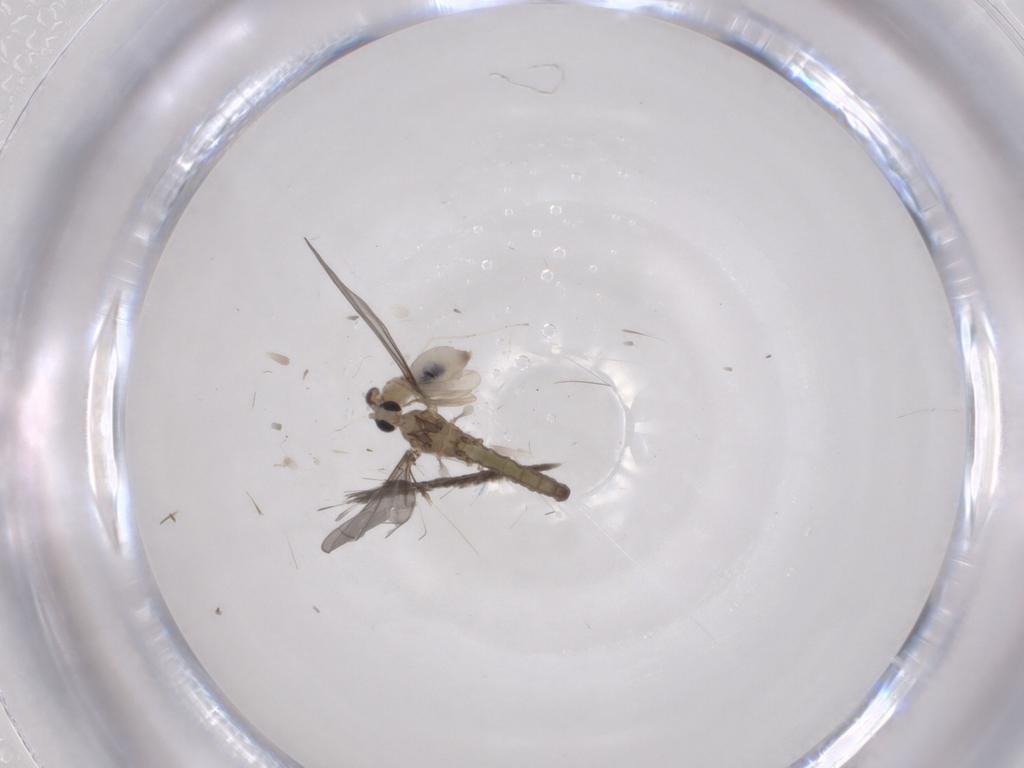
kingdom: Animalia
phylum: Arthropoda
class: Insecta
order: Diptera
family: Cecidomyiidae
